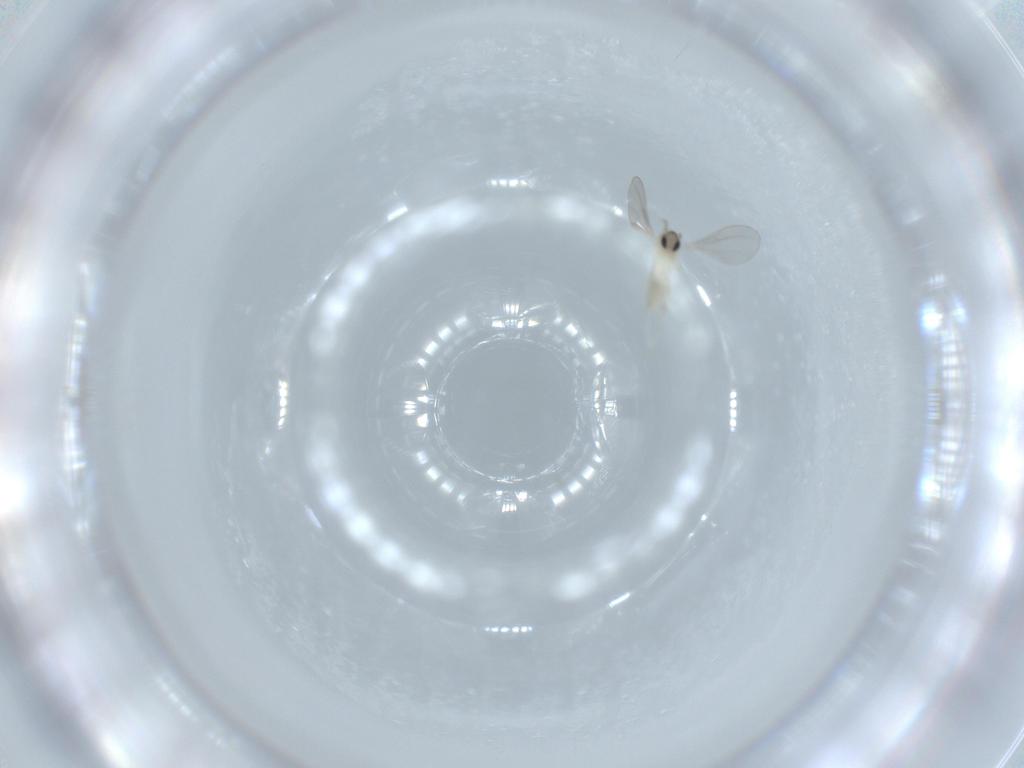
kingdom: Animalia
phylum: Arthropoda
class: Insecta
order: Diptera
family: Cecidomyiidae
